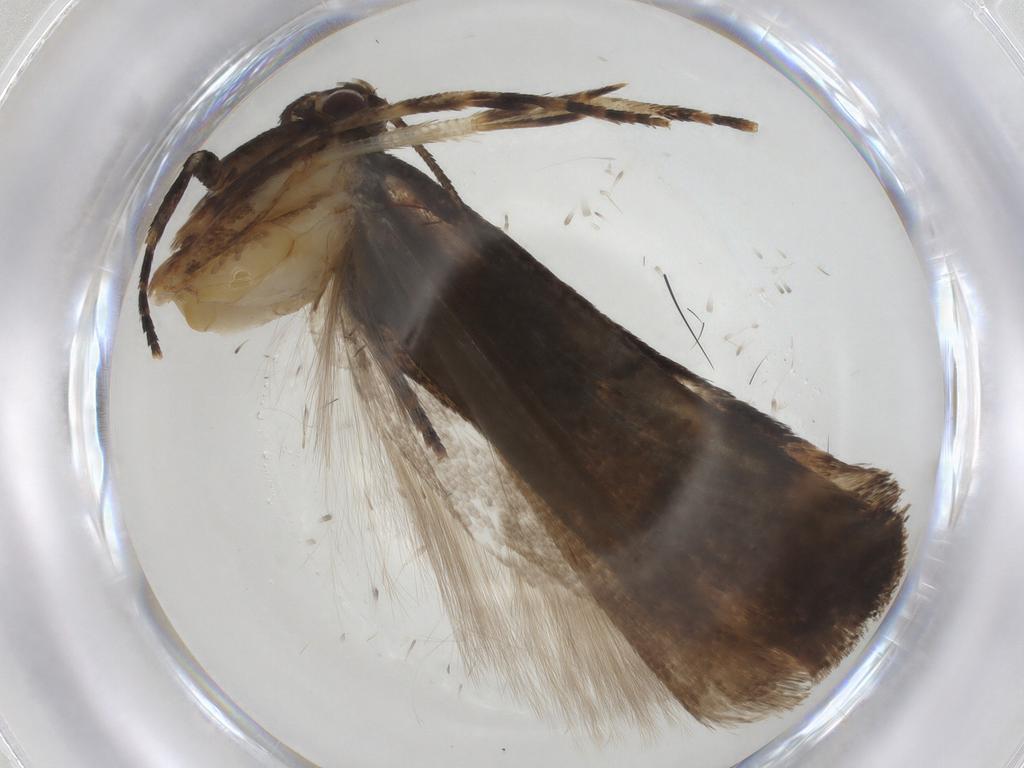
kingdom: Animalia
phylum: Arthropoda
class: Insecta
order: Lepidoptera
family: Gelechiidae
